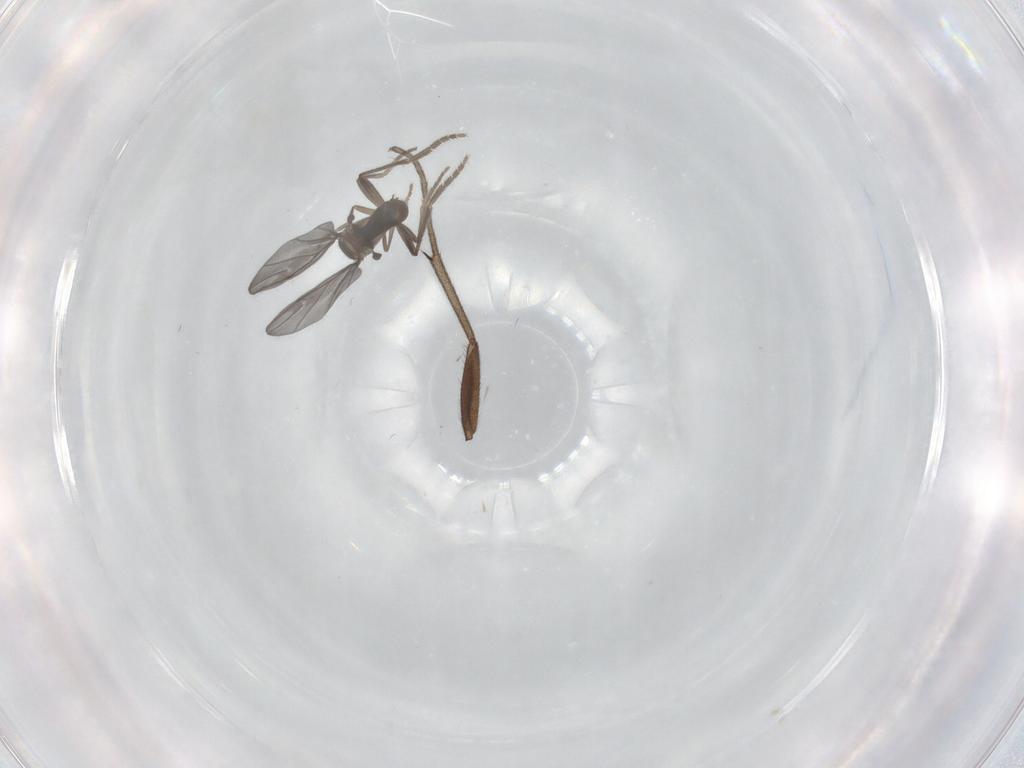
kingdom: Animalia
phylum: Arthropoda
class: Insecta
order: Diptera
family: Phoridae
